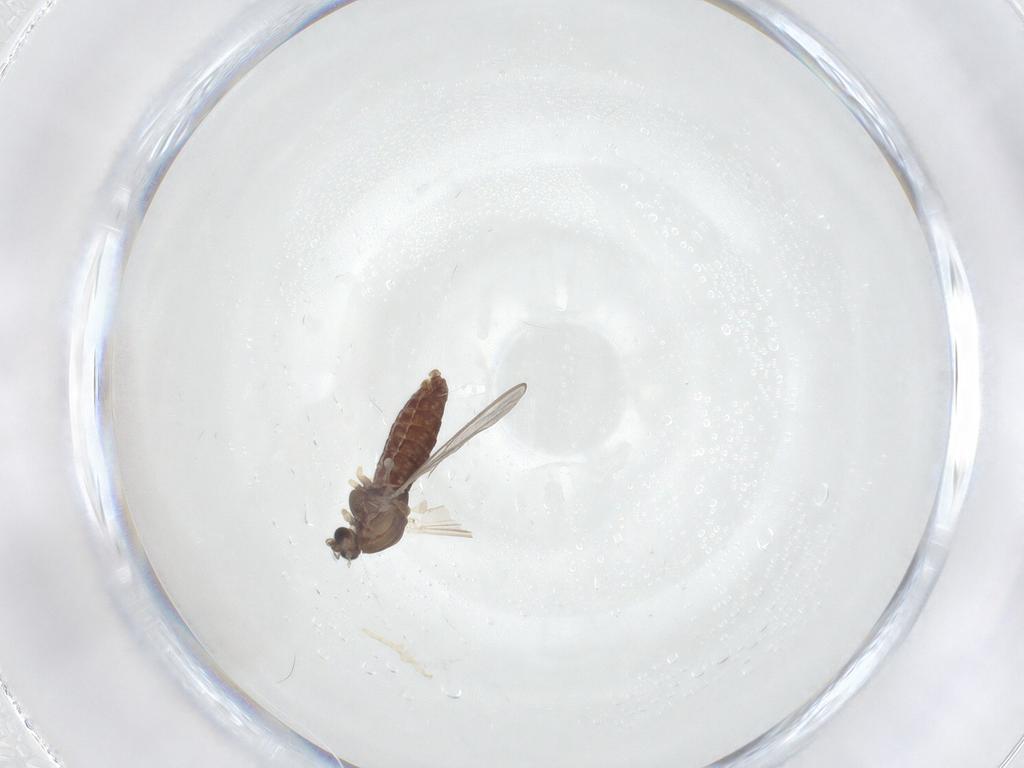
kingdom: Animalia
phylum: Arthropoda
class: Insecta
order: Diptera
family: Chironomidae
